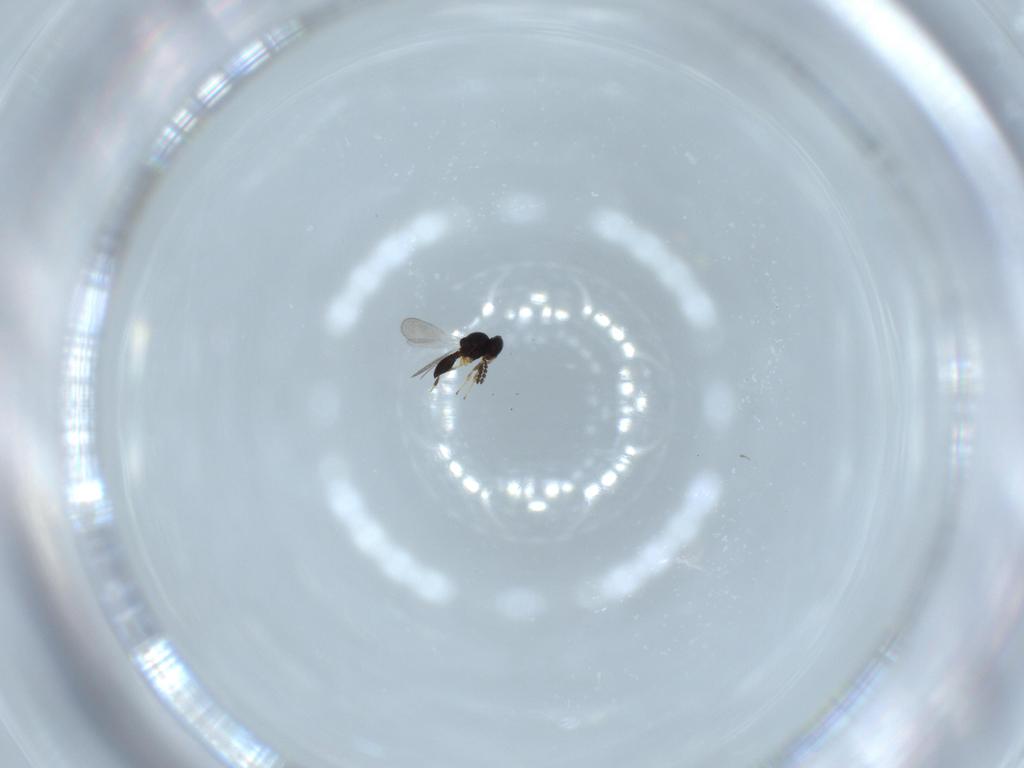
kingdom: Animalia
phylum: Arthropoda
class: Insecta
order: Hymenoptera
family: Platygastridae
